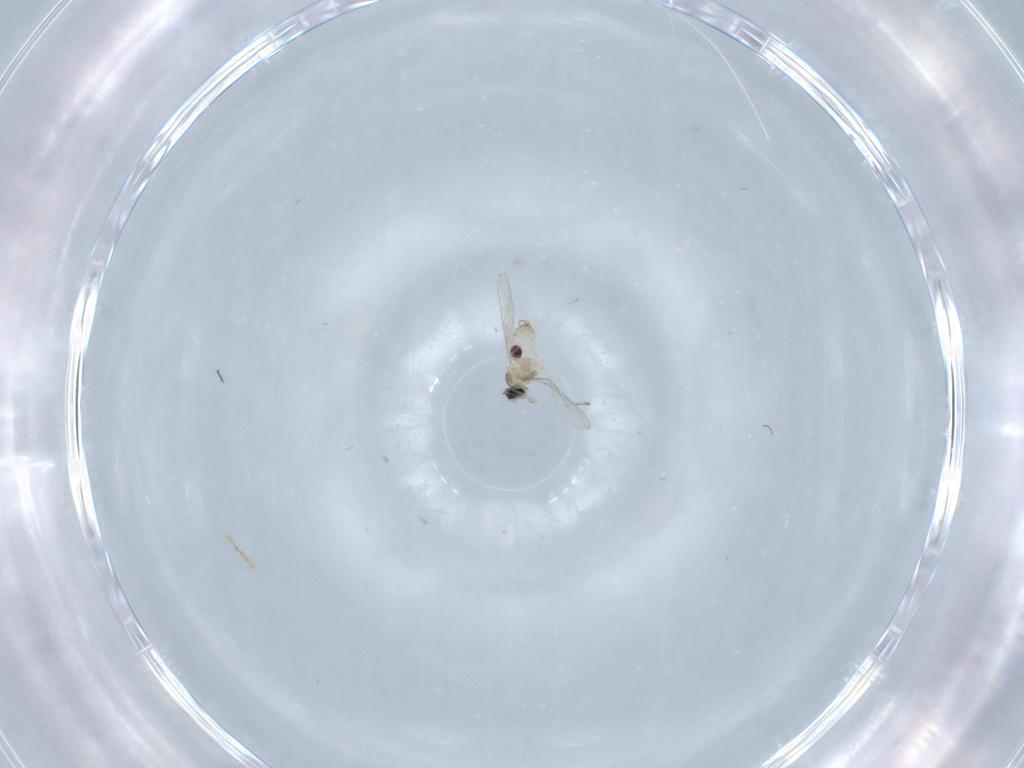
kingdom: Animalia
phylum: Arthropoda
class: Insecta
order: Diptera
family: Cecidomyiidae
